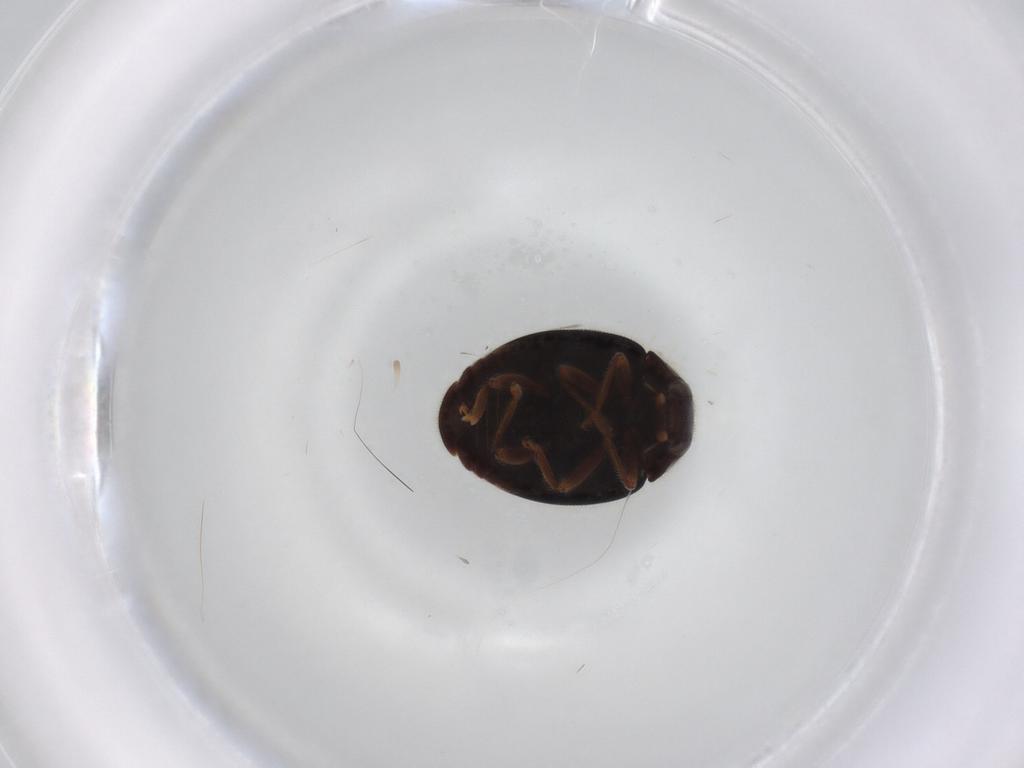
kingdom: Animalia
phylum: Arthropoda
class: Insecta
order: Coleoptera
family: Coccinellidae
